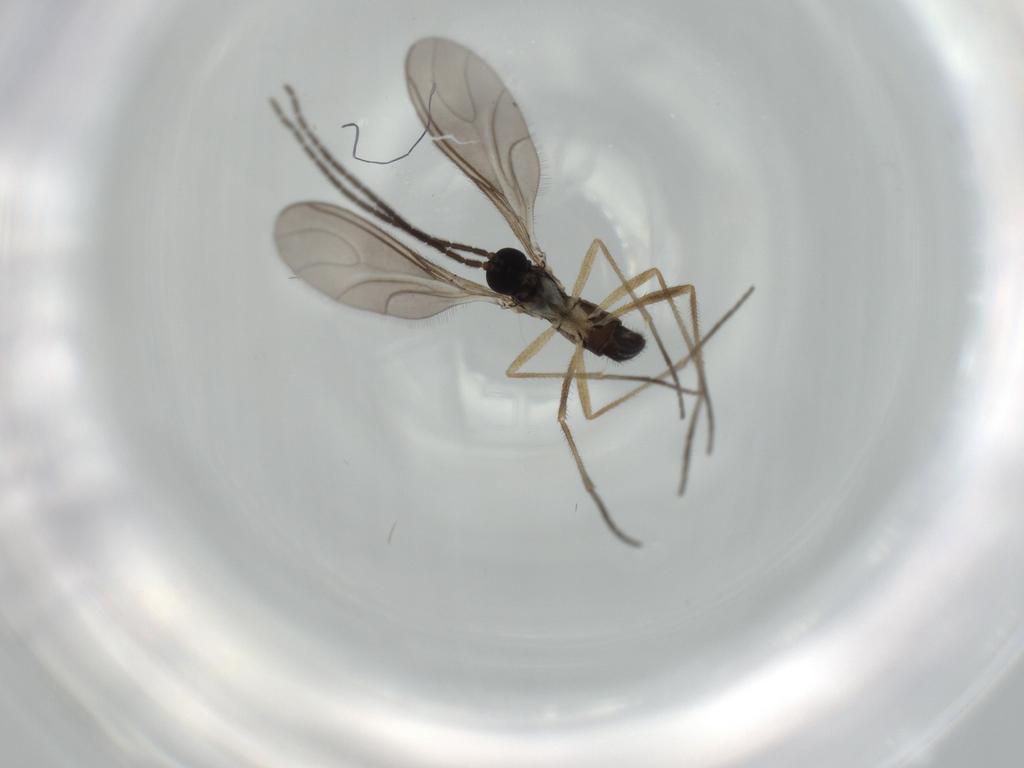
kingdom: Animalia
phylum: Arthropoda
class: Insecta
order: Diptera
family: Sciaridae
